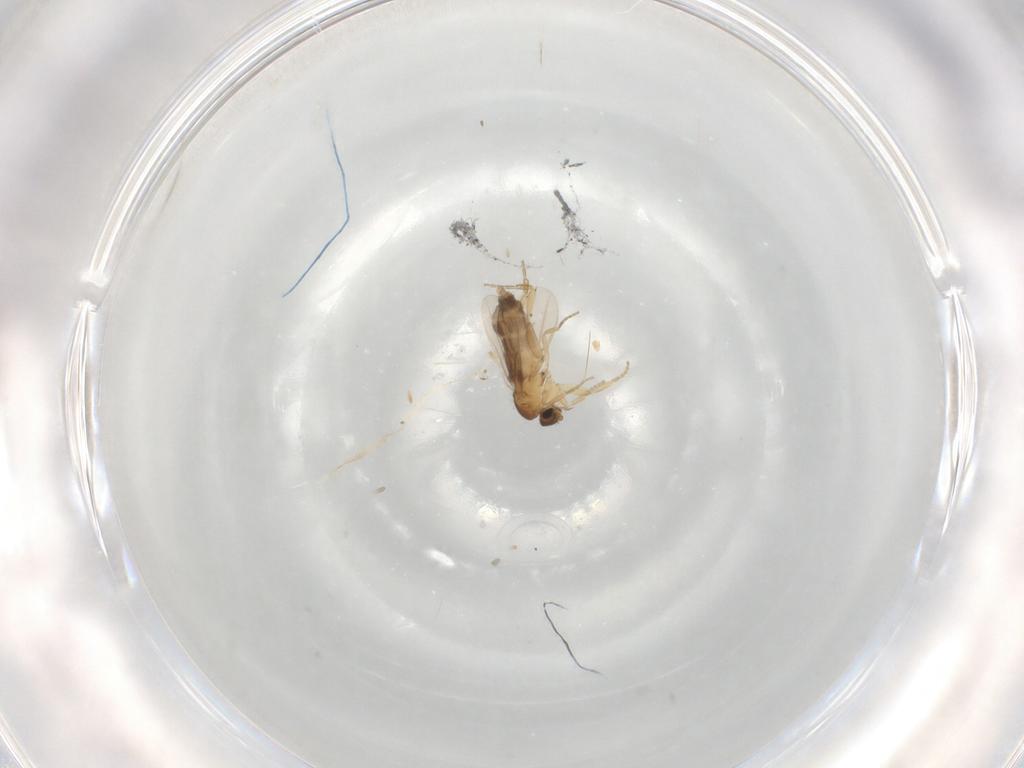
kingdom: Animalia
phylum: Arthropoda
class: Insecta
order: Diptera
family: Phoridae
